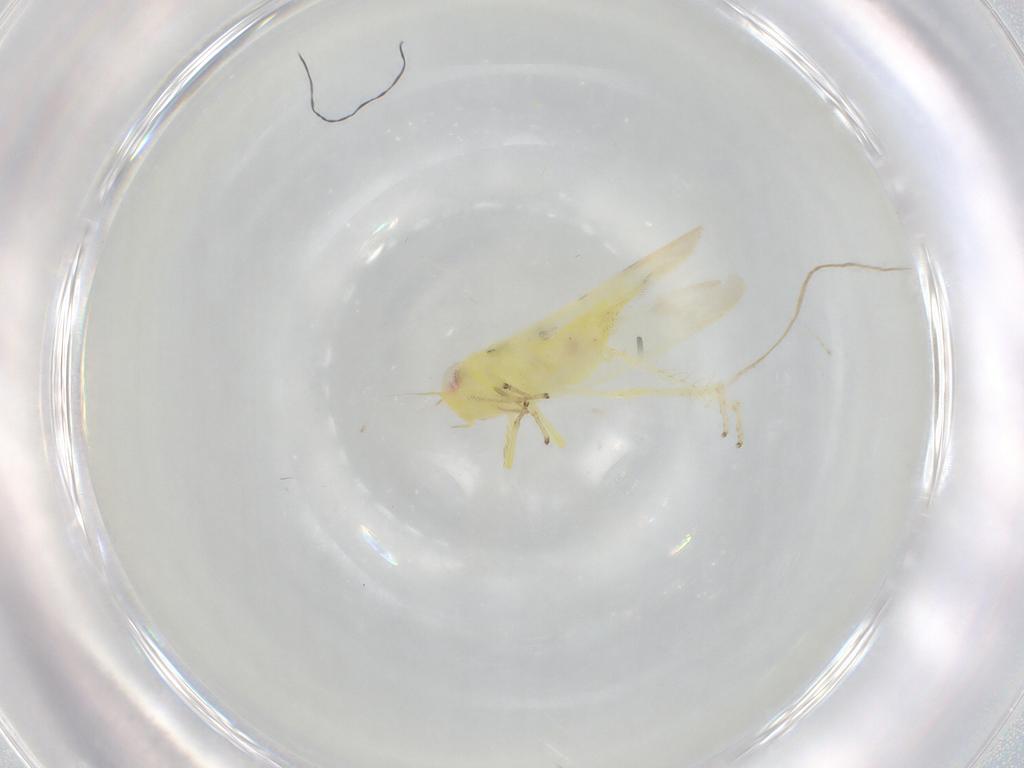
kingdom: Animalia
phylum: Arthropoda
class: Insecta
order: Hemiptera
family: Cicadellidae
